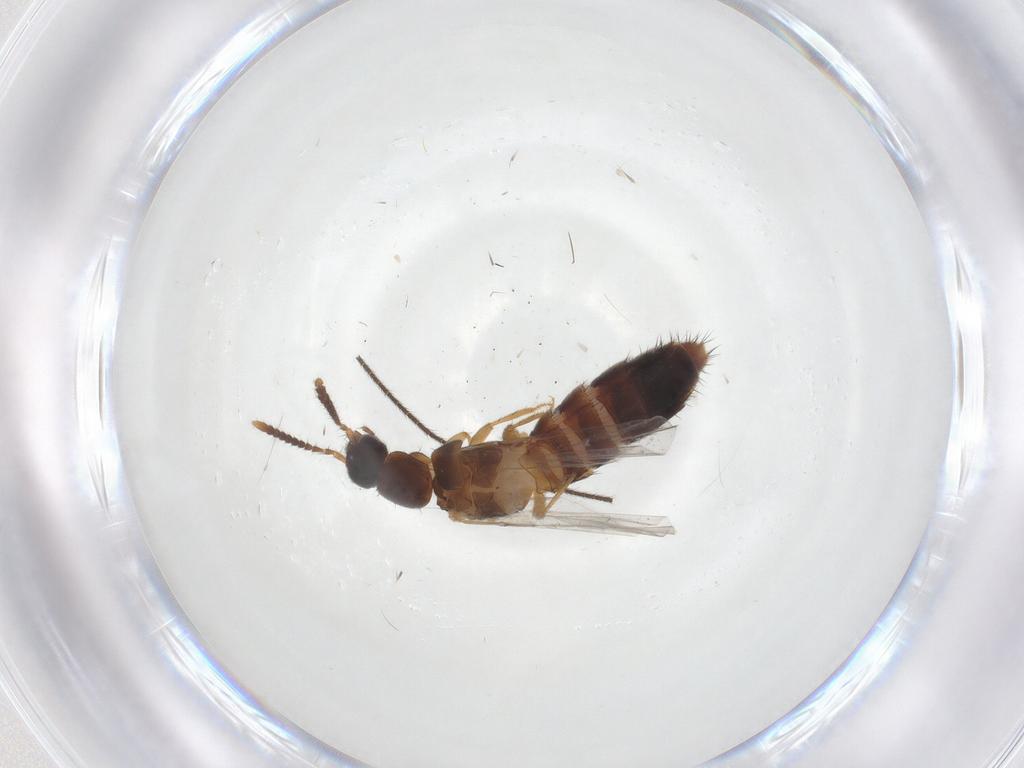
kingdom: Animalia
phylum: Arthropoda
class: Insecta
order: Coleoptera
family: Staphylinidae
